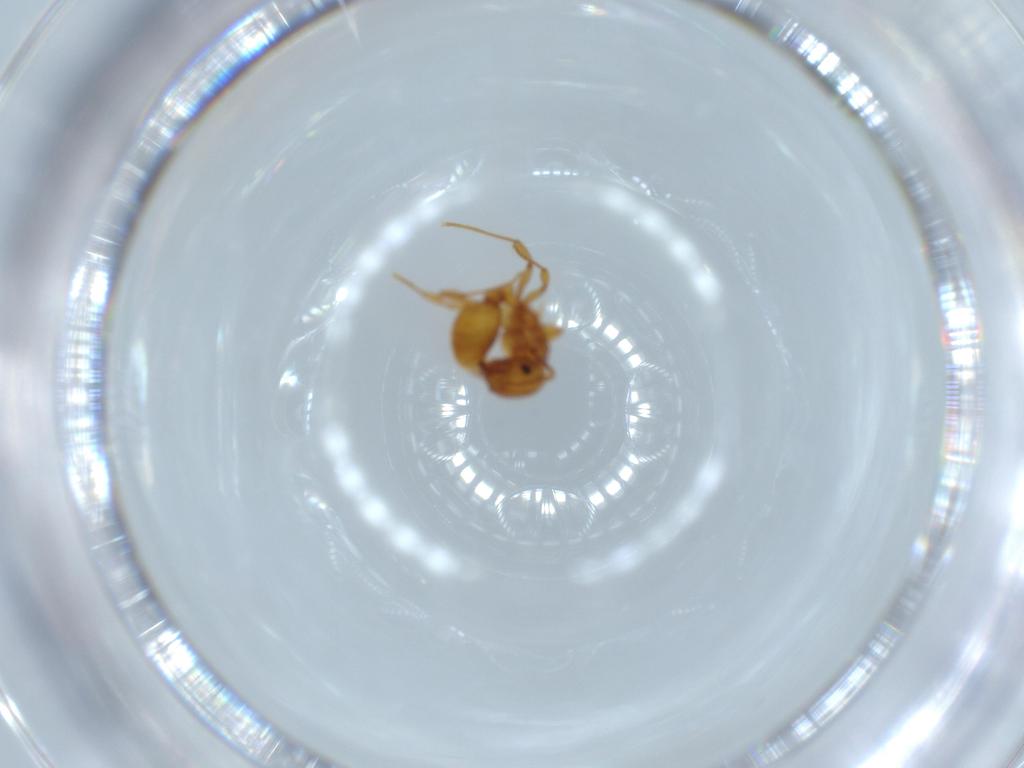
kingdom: Animalia
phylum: Arthropoda
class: Insecta
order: Hymenoptera
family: Formicidae
